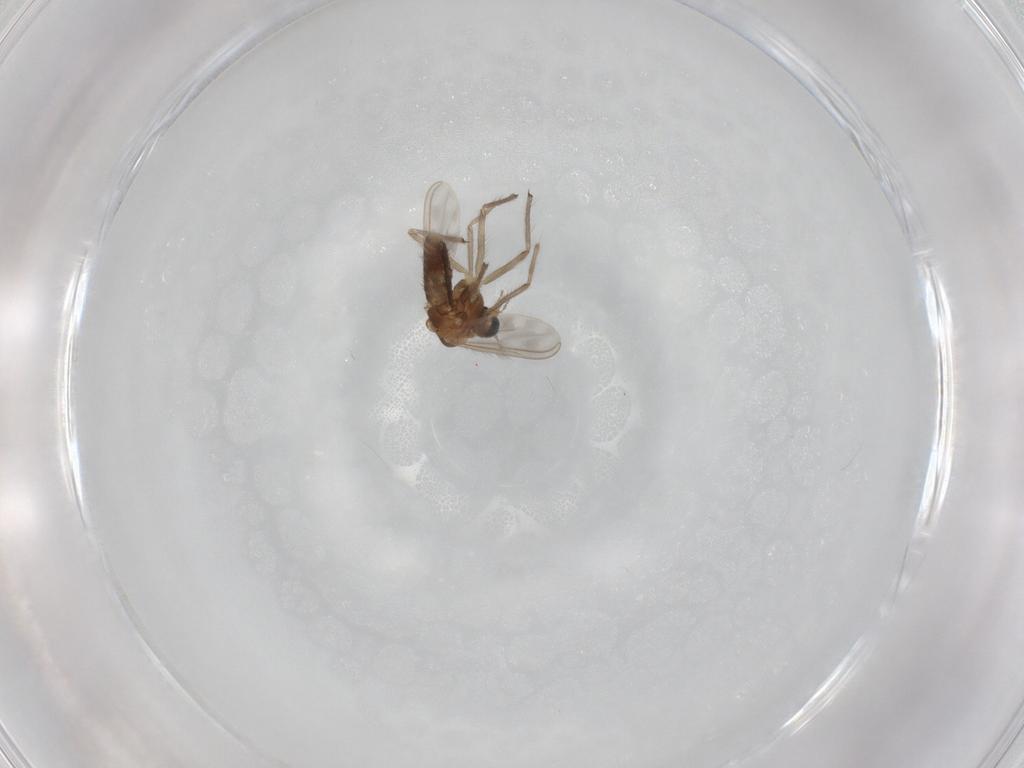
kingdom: Animalia
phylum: Arthropoda
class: Insecta
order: Diptera
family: Chironomidae
